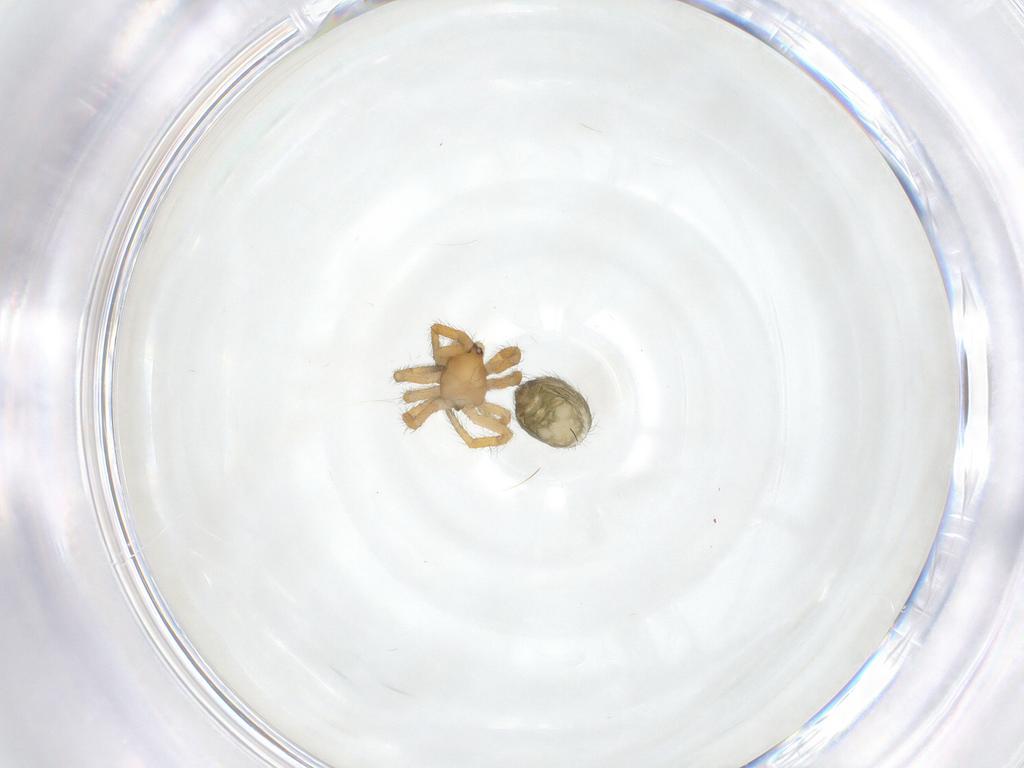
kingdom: Animalia
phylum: Arthropoda
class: Arachnida
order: Araneae
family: Theridiidae
